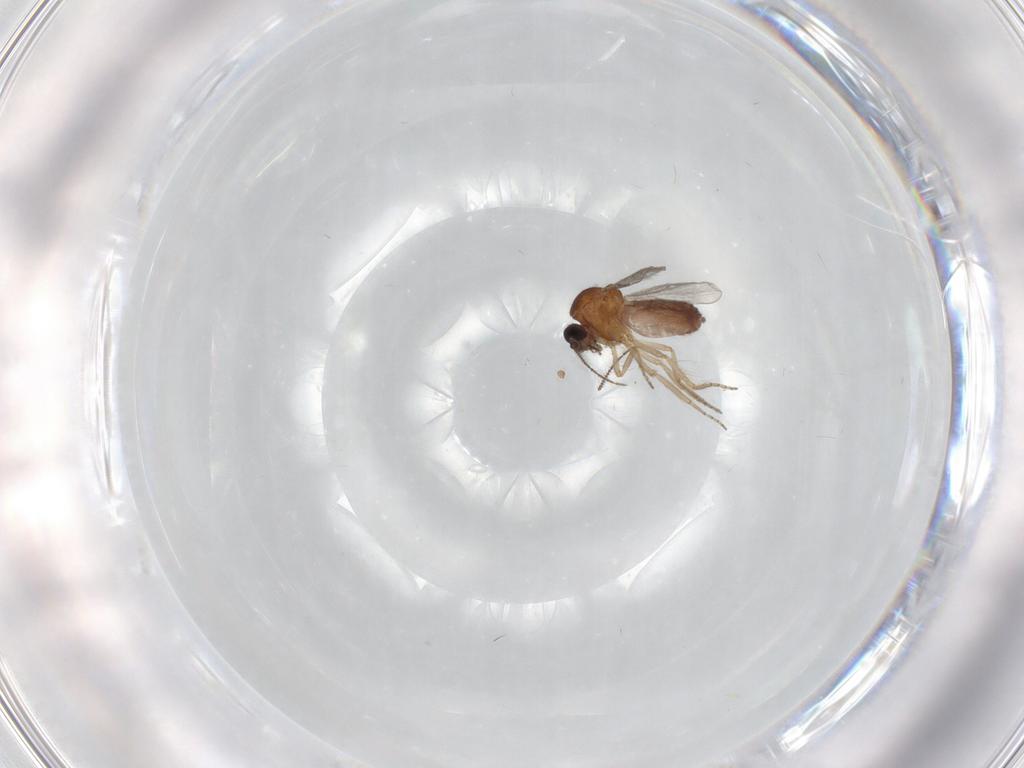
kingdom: Animalia
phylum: Arthropoda
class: Insecta
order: Diptera
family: Ceratopogonidae
